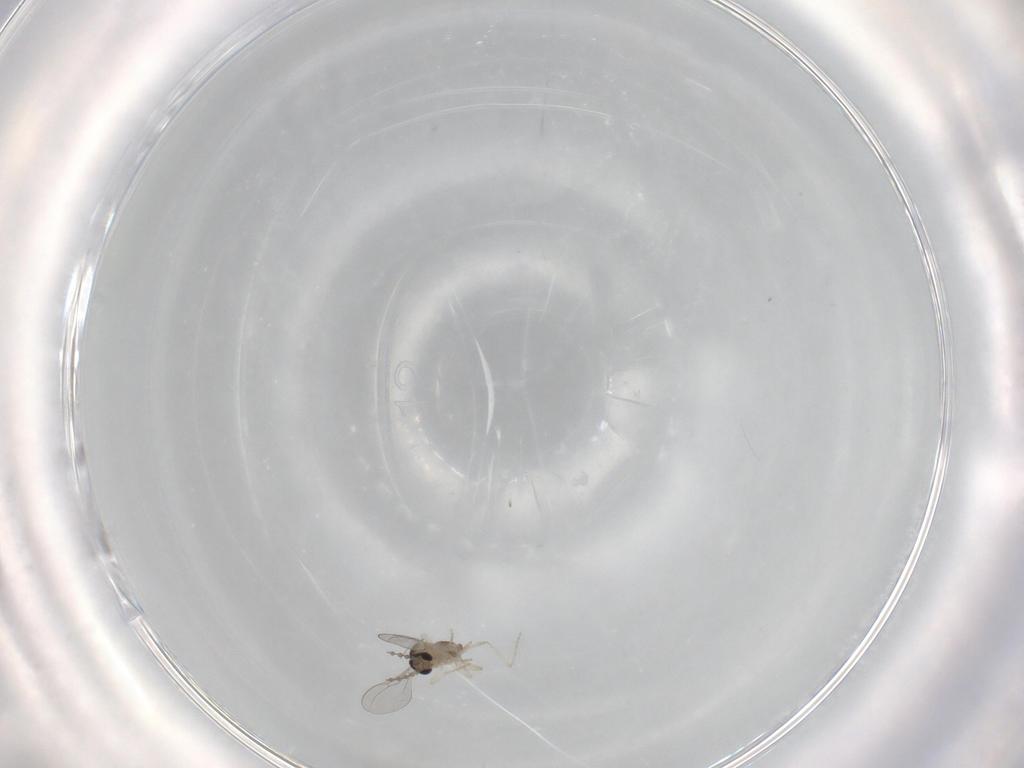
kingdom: Animalia
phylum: Arthropoda
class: Insecta
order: Diptera
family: Cecidomyiidae
